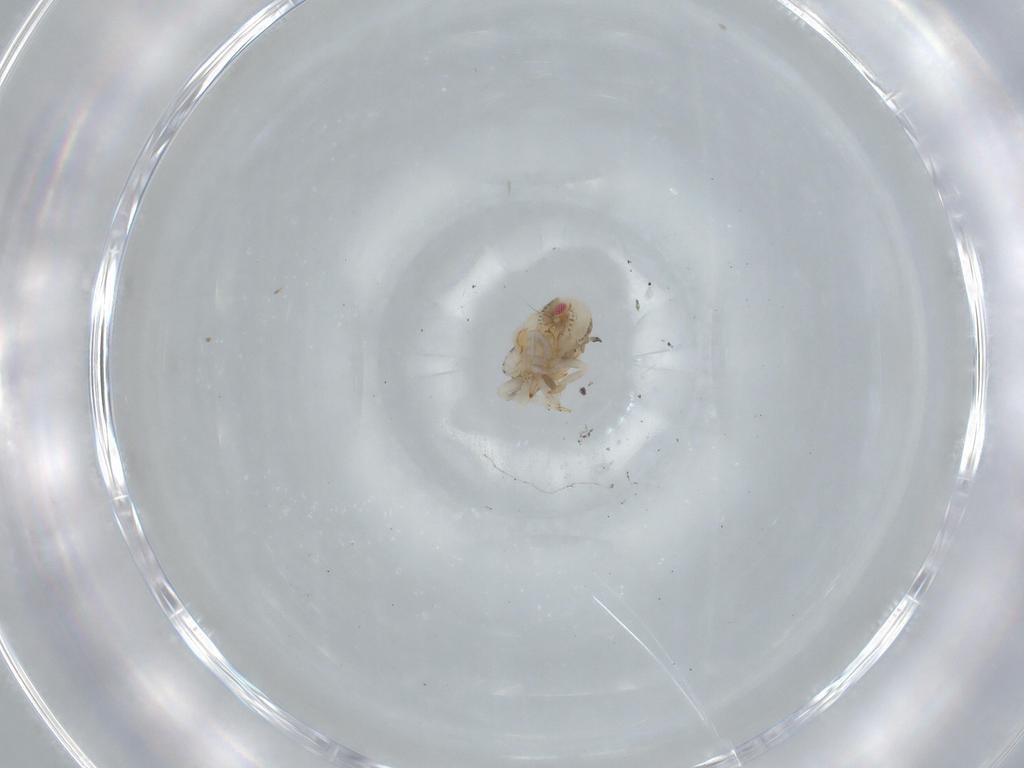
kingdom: Animalia
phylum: Arthropoda
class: Insecta
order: Hemiptera
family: Acanaloniidae
